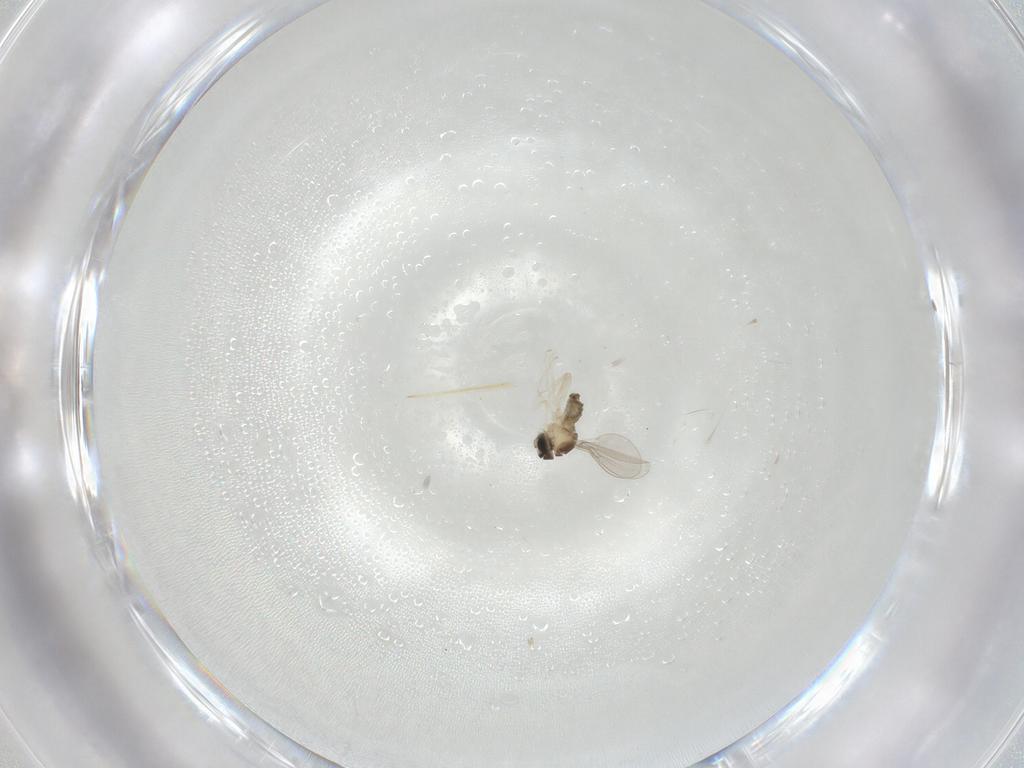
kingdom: Animalia
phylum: Arthropoda
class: Insecta
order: Diptera
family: Cecidomyiidae
